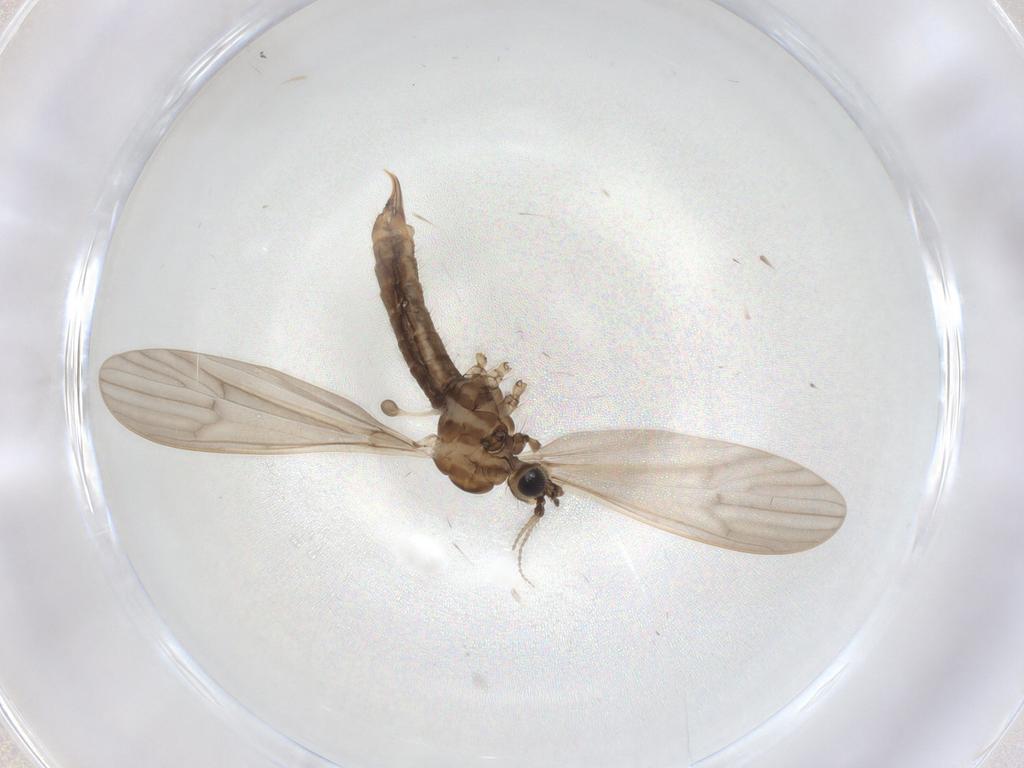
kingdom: Animalia
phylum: Arthropoda
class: Insecta
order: Diptera
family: Limoniidae
